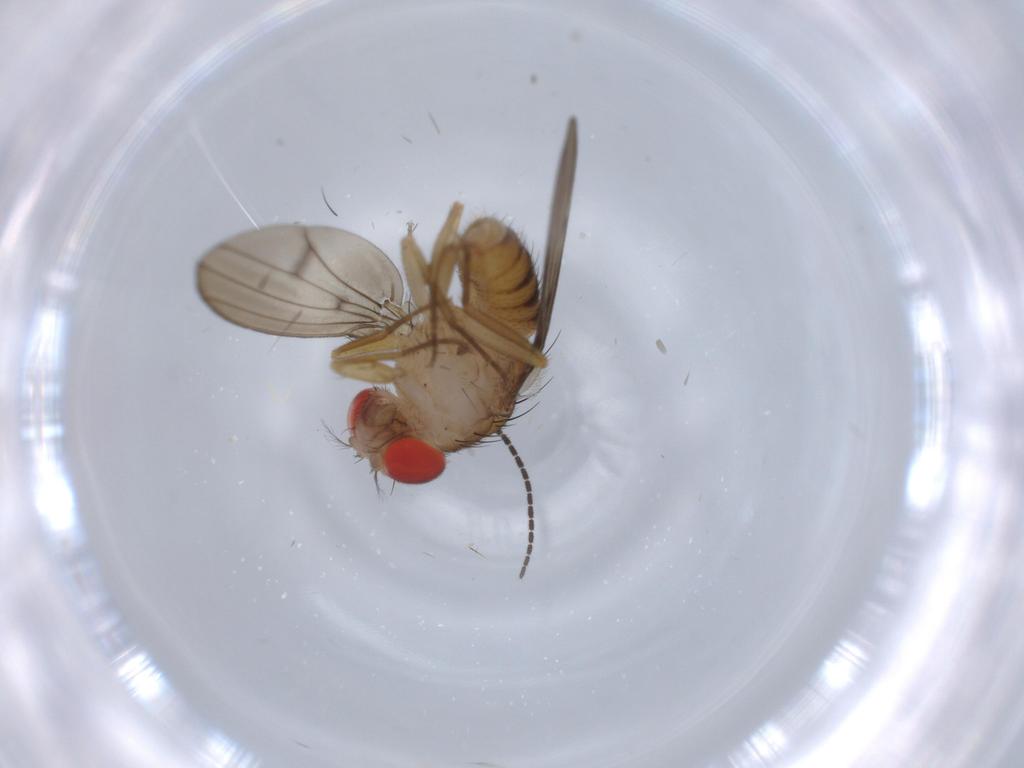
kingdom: Animalia
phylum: Arthropoda
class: Insecta
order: Diptera
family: Drosophilidae
